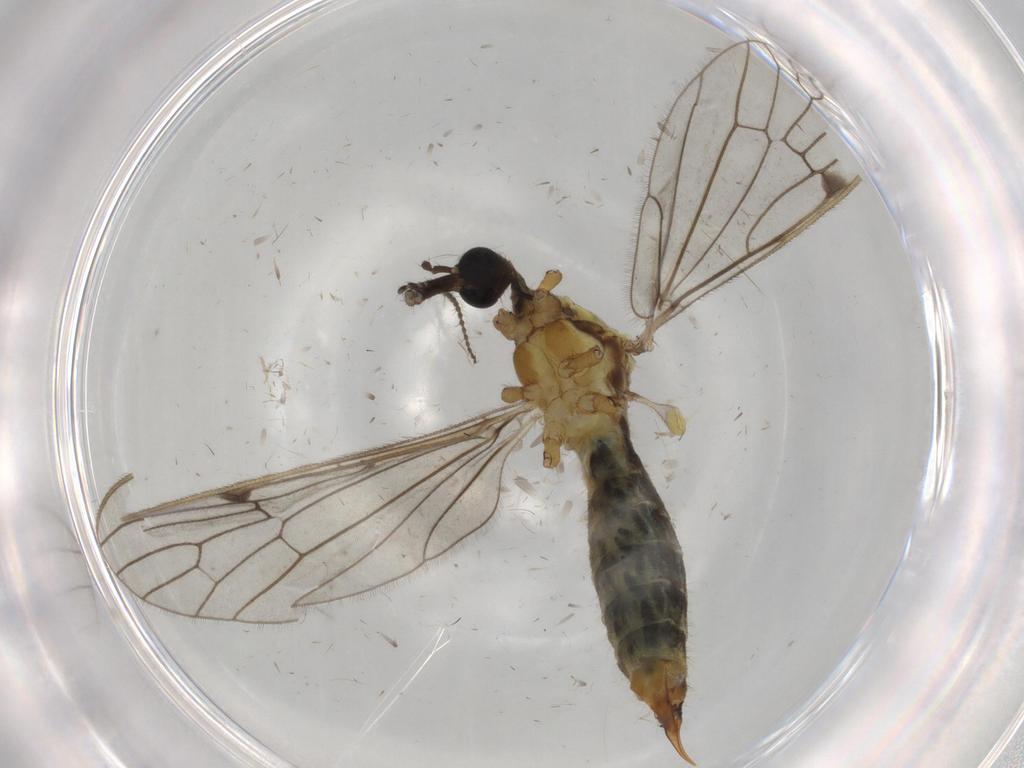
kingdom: Animalia
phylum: Arthropoda
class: Insecta
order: Diptera
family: Limoniidae
